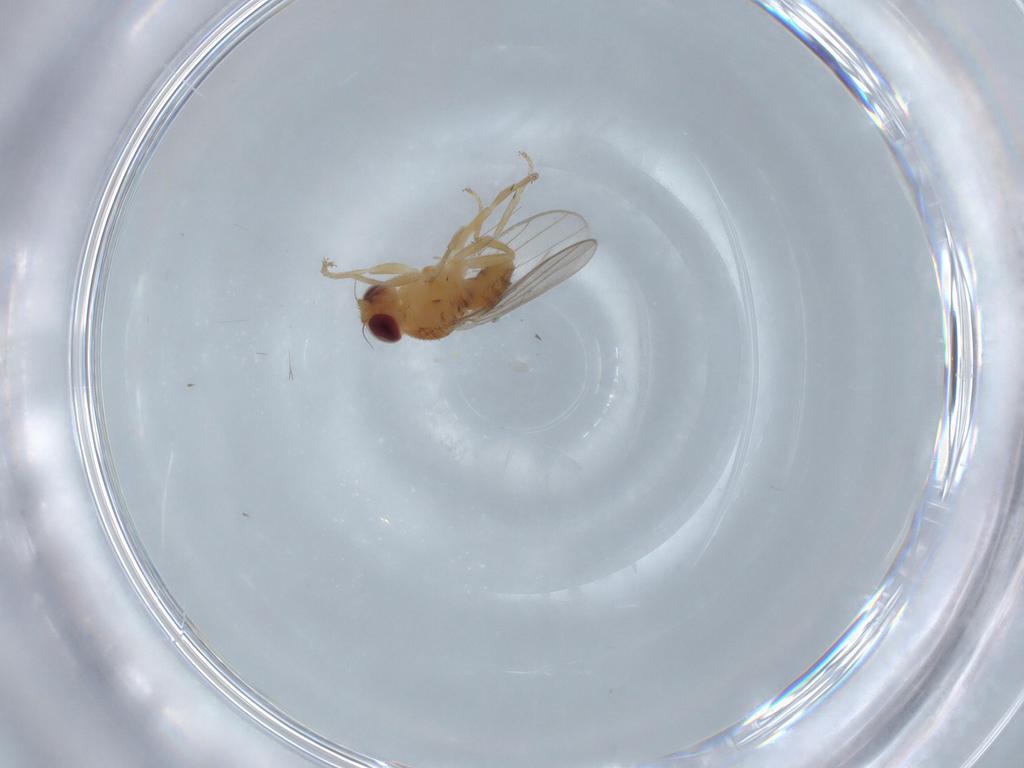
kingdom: Animalia
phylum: Arthropoda
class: Insecta
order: Diptera
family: Chloropidae
